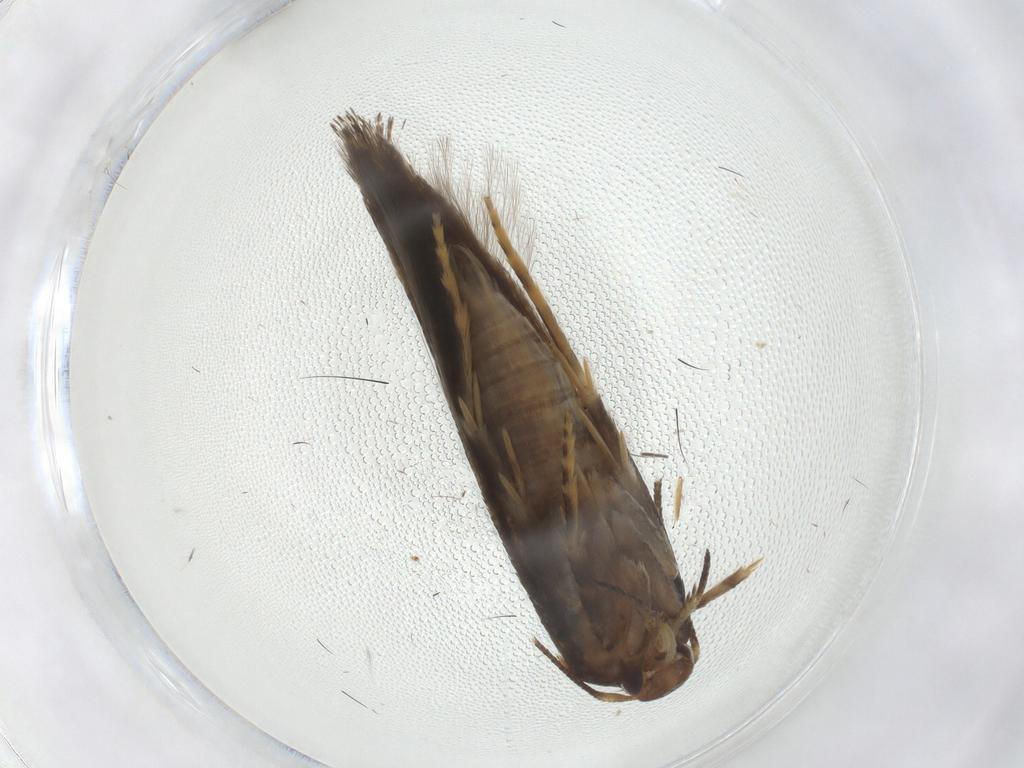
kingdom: Animalia
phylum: Arthropoda
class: Insecta
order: Lepidoptera
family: Momphidae
